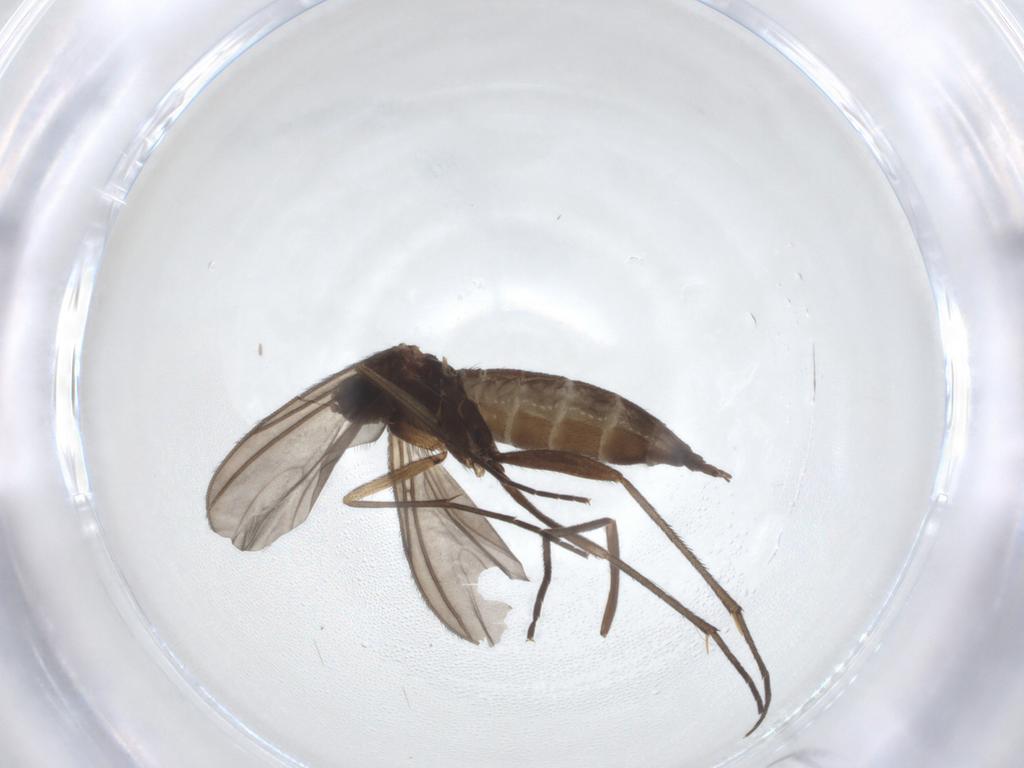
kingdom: Animalia
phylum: Arthropoda
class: Insecta
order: Diptera
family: Sciaridae
